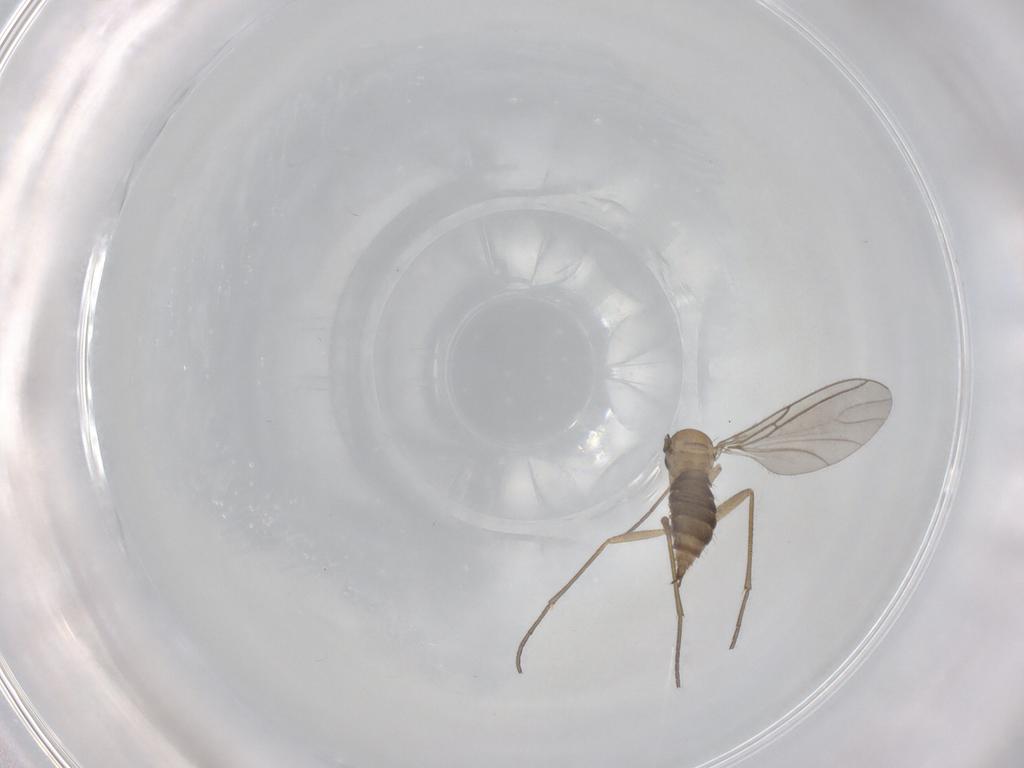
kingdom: Animalia
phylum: Arthropoda
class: Insecta
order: Diptera
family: Sciaridae
